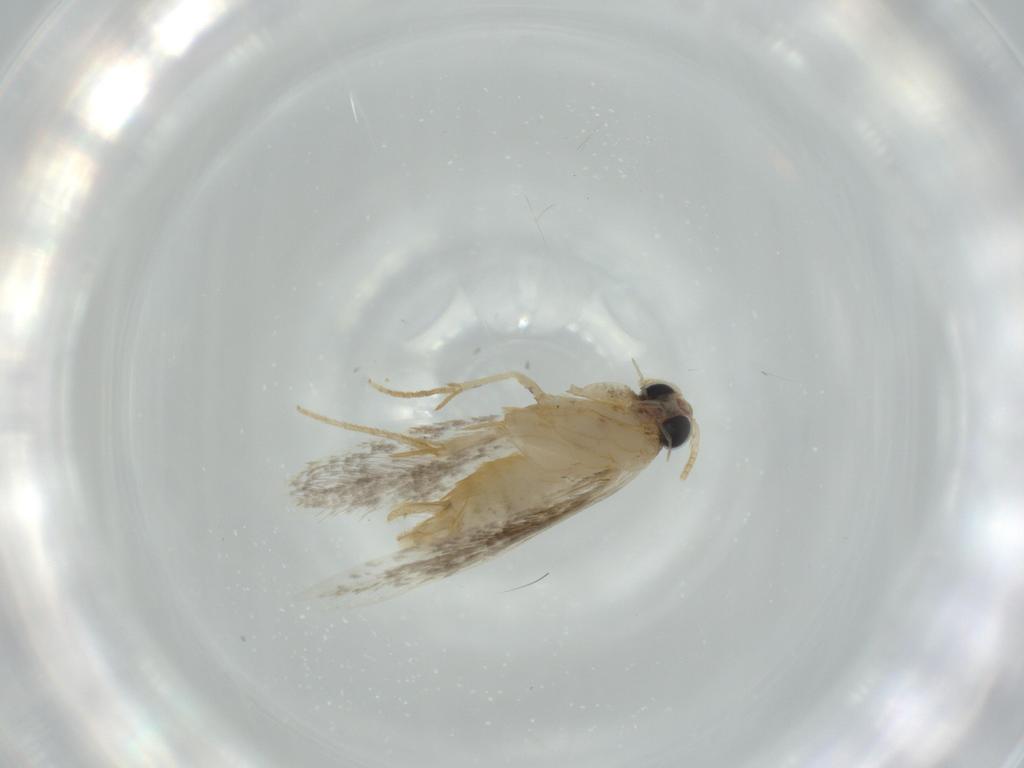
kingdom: Animalia
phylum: Arthropoda
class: Insecta
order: Lepidoptera
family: Tineidae
